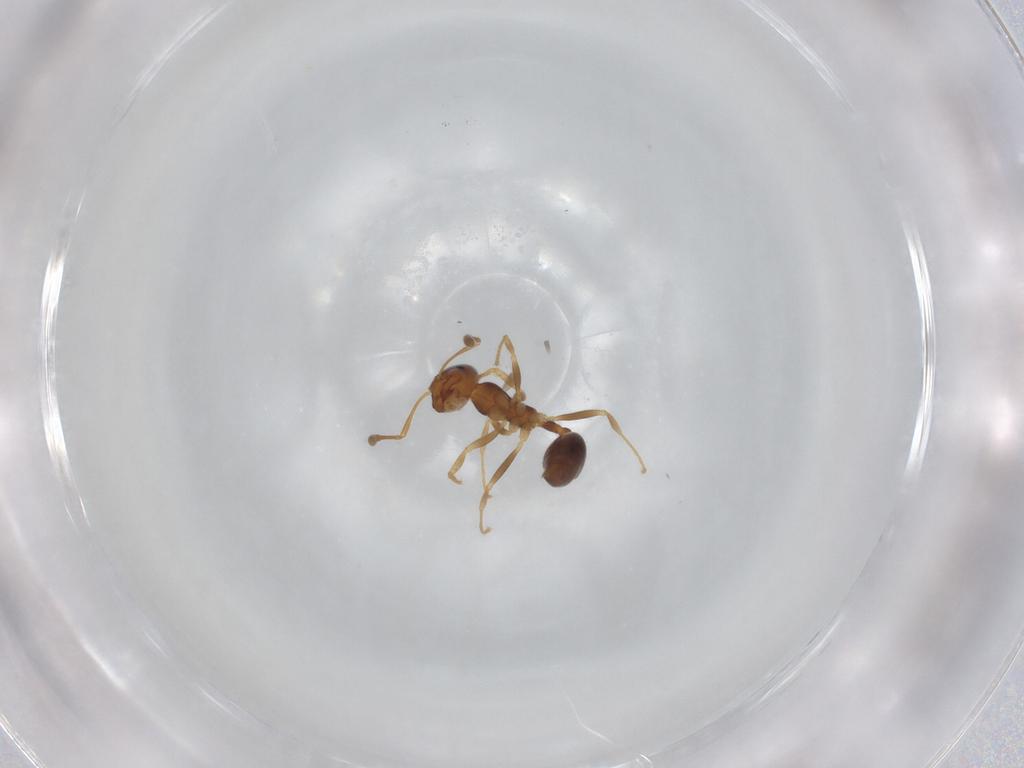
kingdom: Animalia
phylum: Arthropoda
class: Insecta
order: Hymenoptera
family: Formicidae
